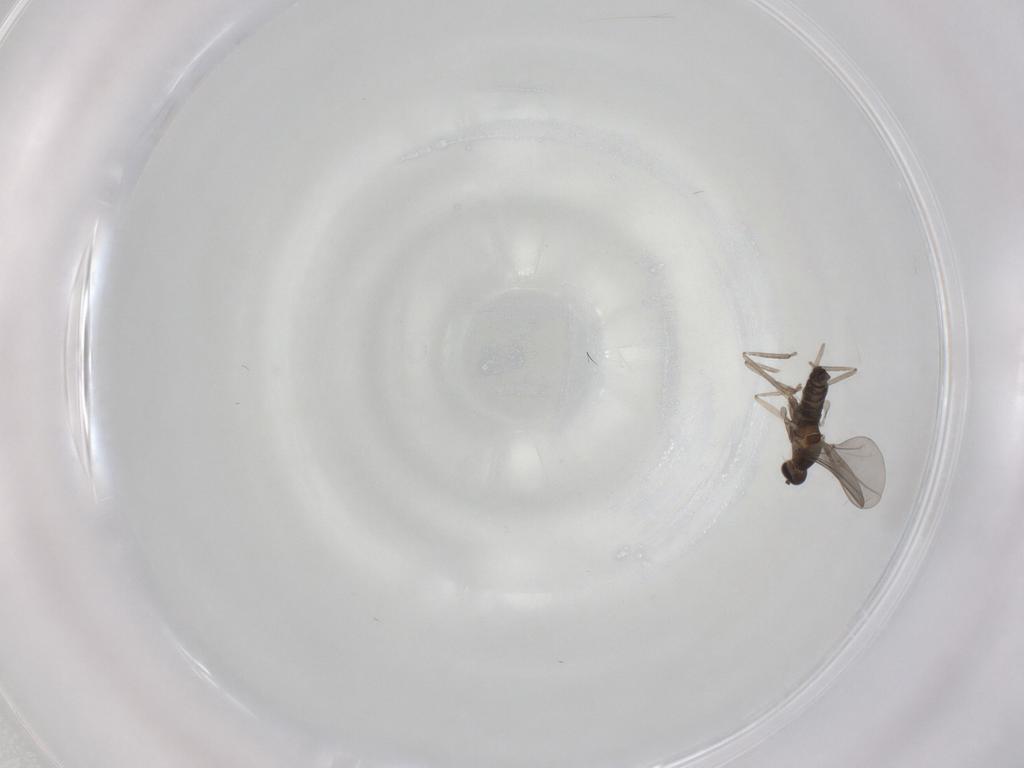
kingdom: Animalia
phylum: Arthropoda
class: Insecta
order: Diptera
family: Cecidomyiidae
